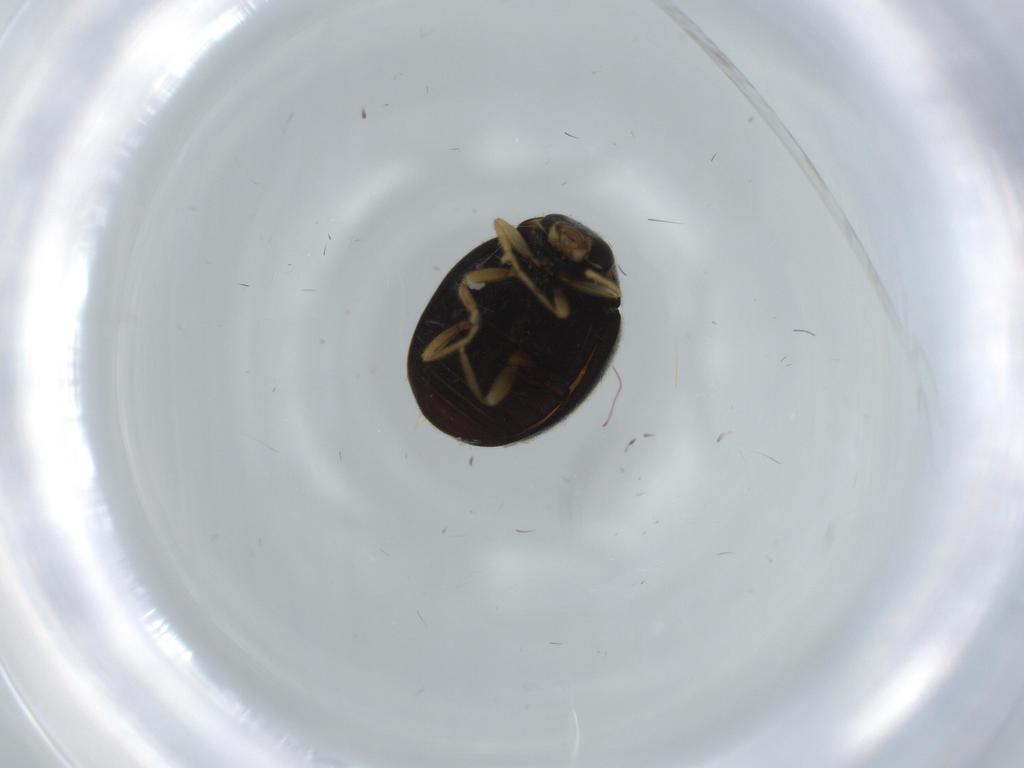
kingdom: Animalia
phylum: Arthropoda
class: Insecta
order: Coleoptera
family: Coccinellidae
